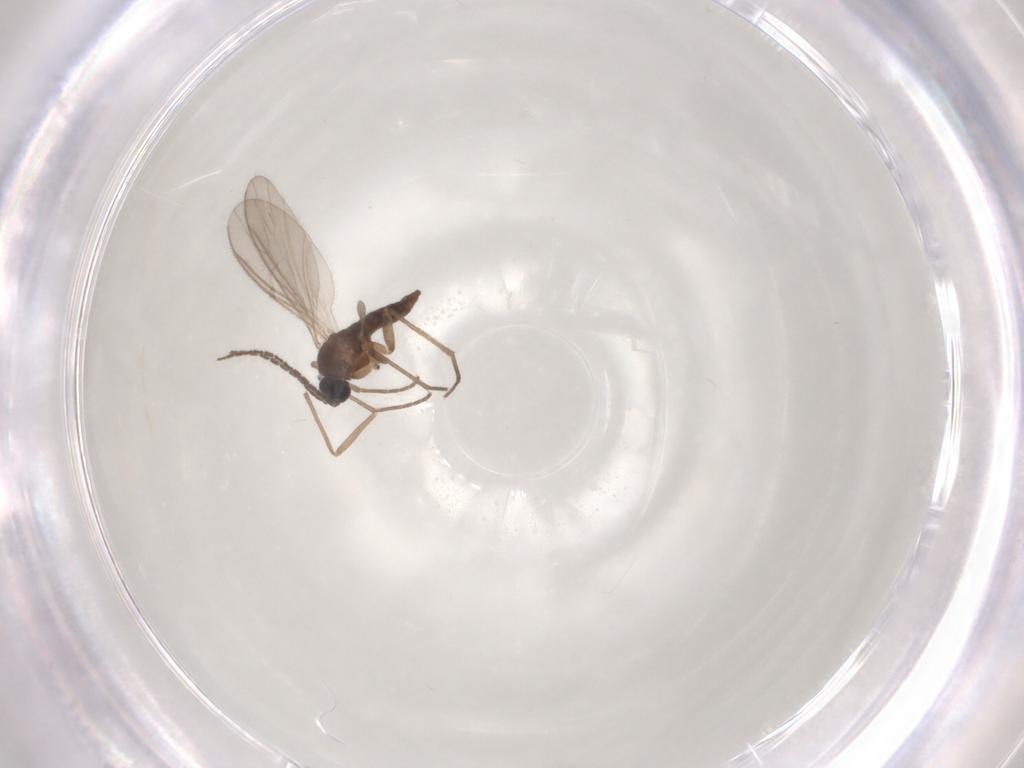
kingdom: Animalia
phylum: Arthropoda
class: Insecta
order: Diptera
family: Sciaridae
